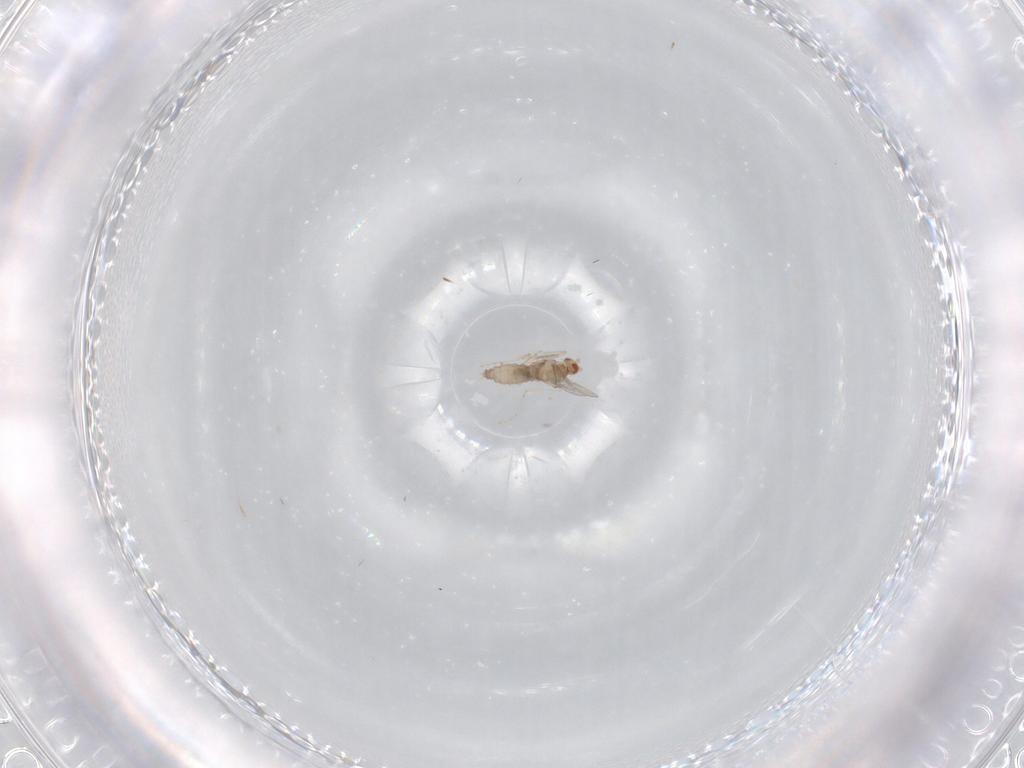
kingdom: Animalia
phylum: Arthropoda
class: Insecta
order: Diptera
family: Cecidomyiidae
